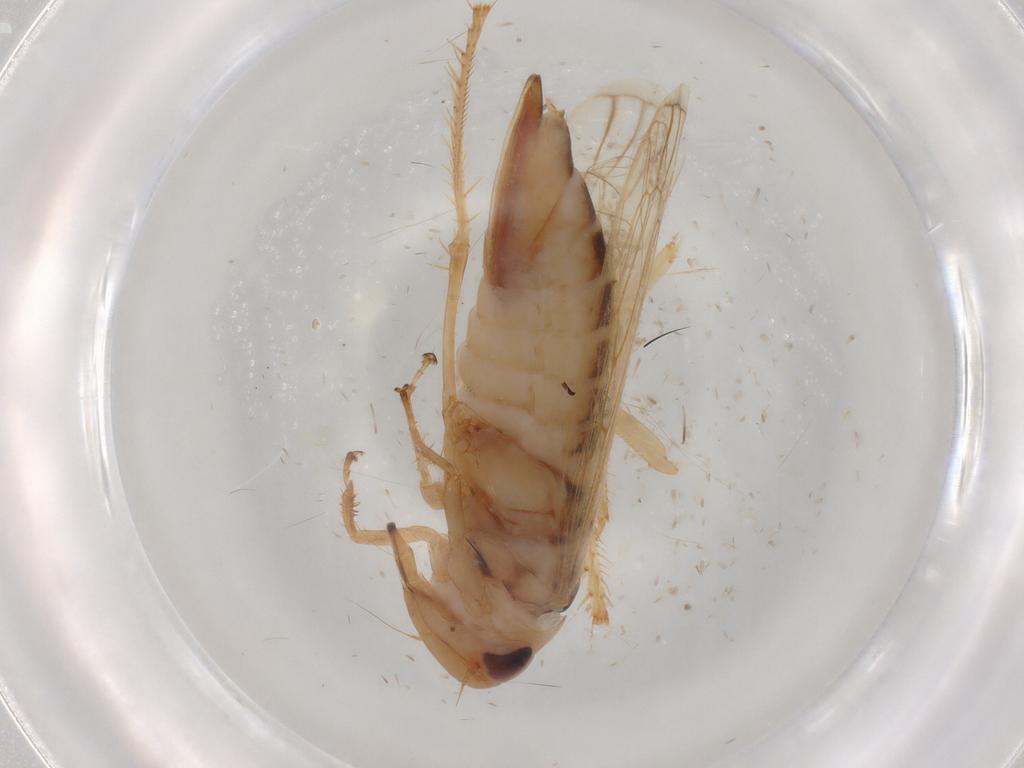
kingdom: Animalia
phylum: Arthropoda
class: Insecta
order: Hemiptera
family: Cicadellidae
